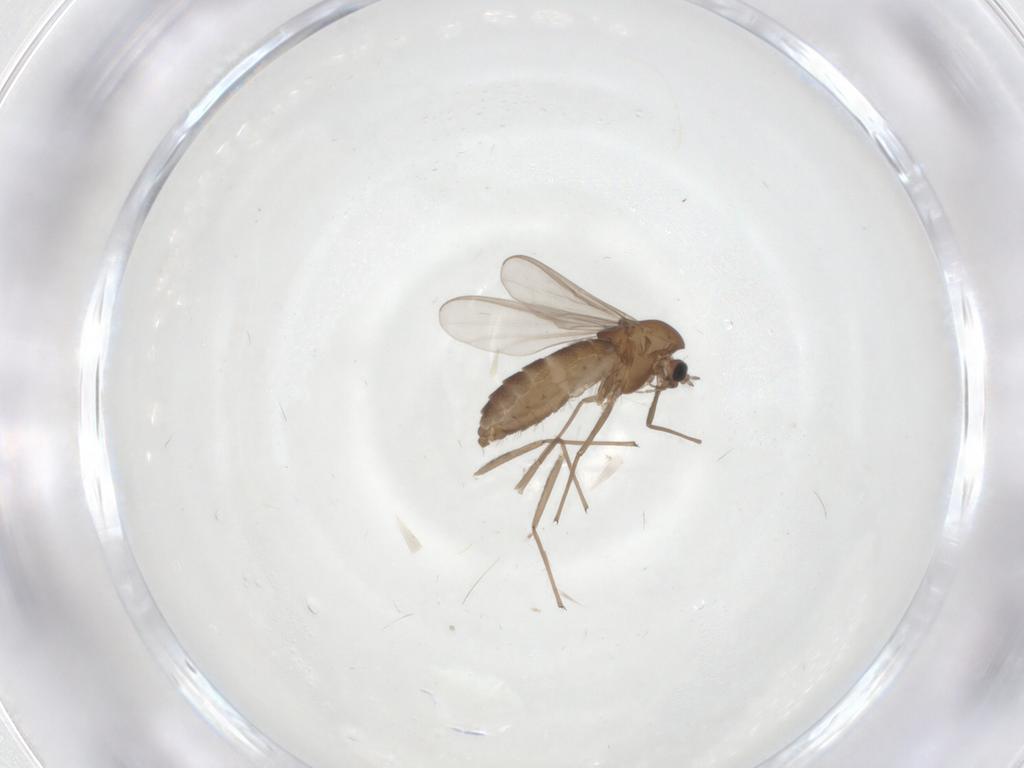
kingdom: Animalia
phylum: Arthropoda
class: Insecta
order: Diptera
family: Chironomidae
